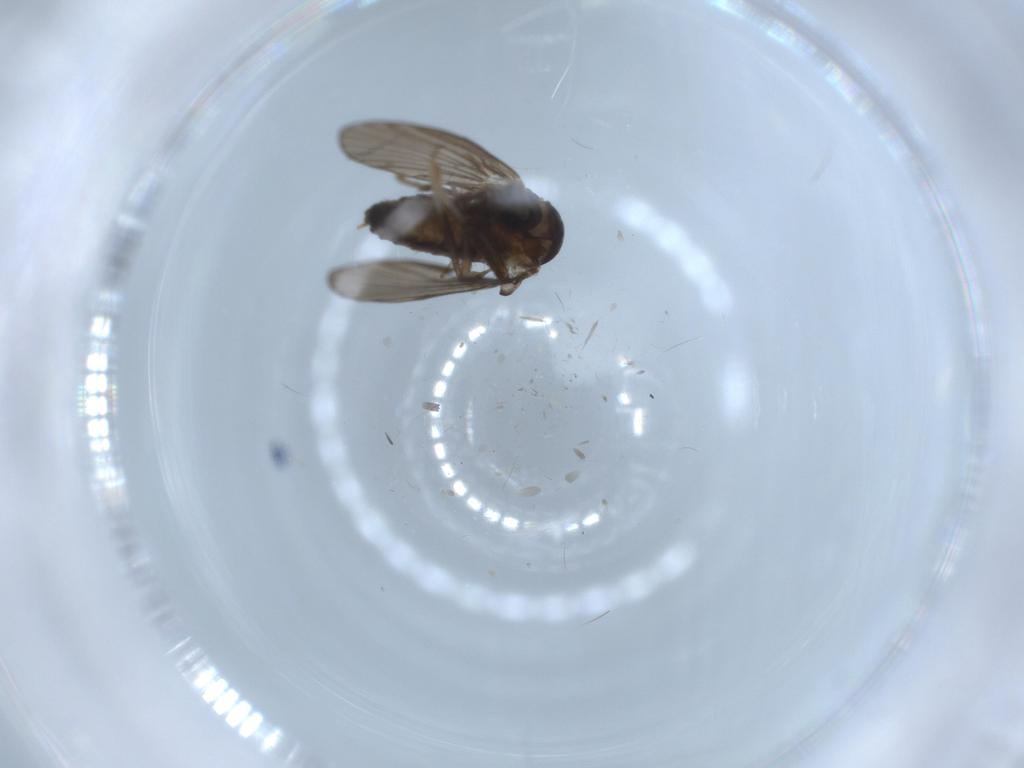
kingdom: Animalia
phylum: Arthropoda
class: Insecta
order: Diptera
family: Psychodidae
